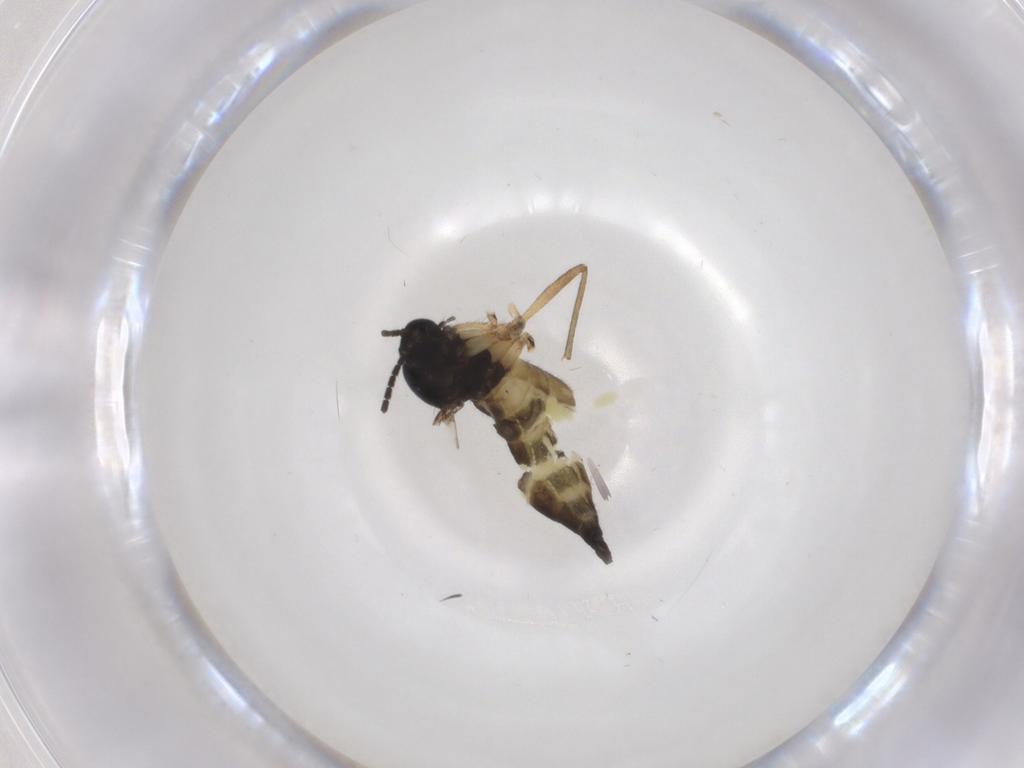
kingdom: Animalia
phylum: Arthropoda
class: Insecta
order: Diptera
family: Sciaridae
